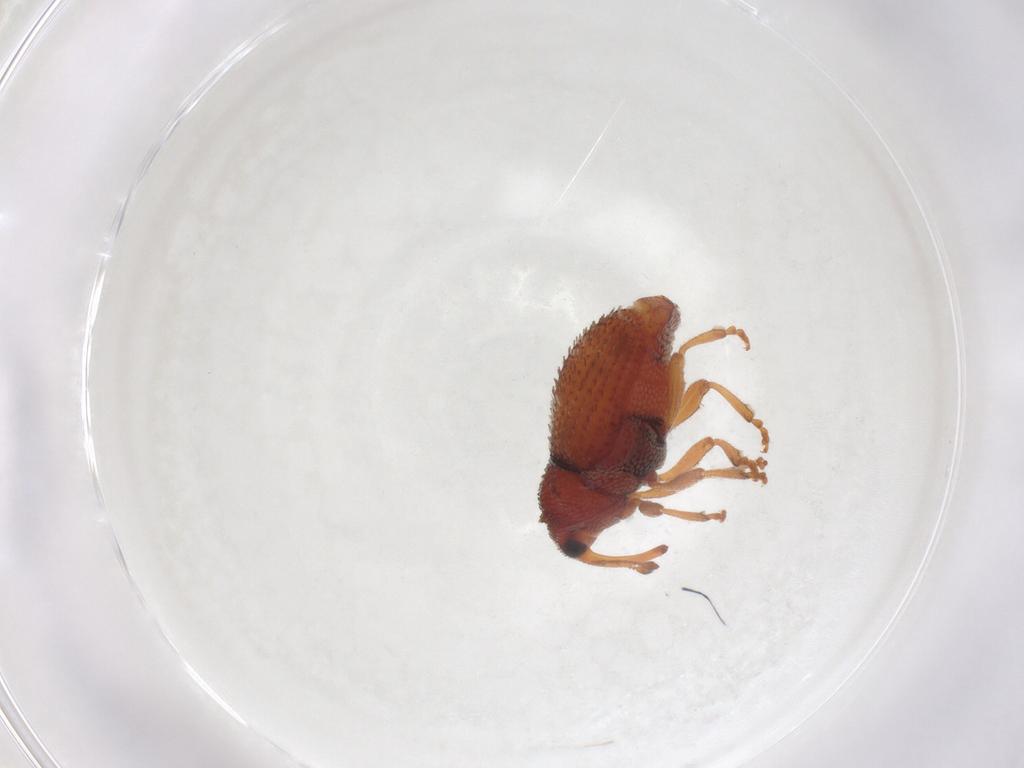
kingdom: Animalia
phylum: Arthropoda
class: Insecta
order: Coleoptera
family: Curculionidae
